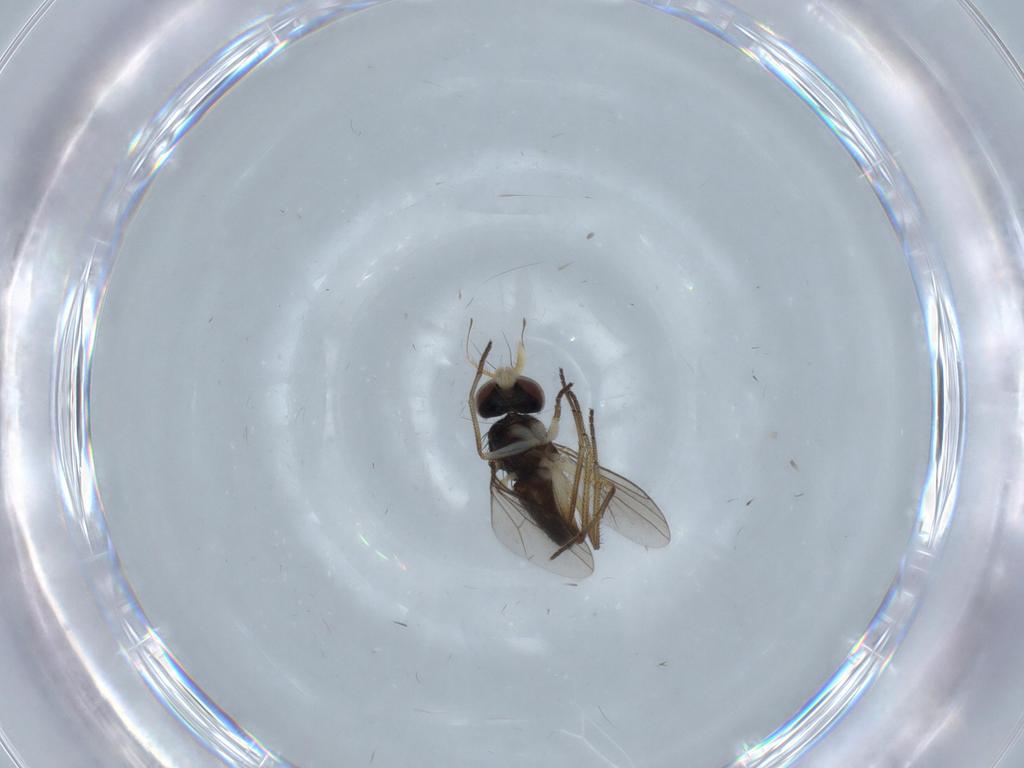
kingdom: Animalia
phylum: Arthropoda
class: Insecta
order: Diptera
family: Dolichopodidae
